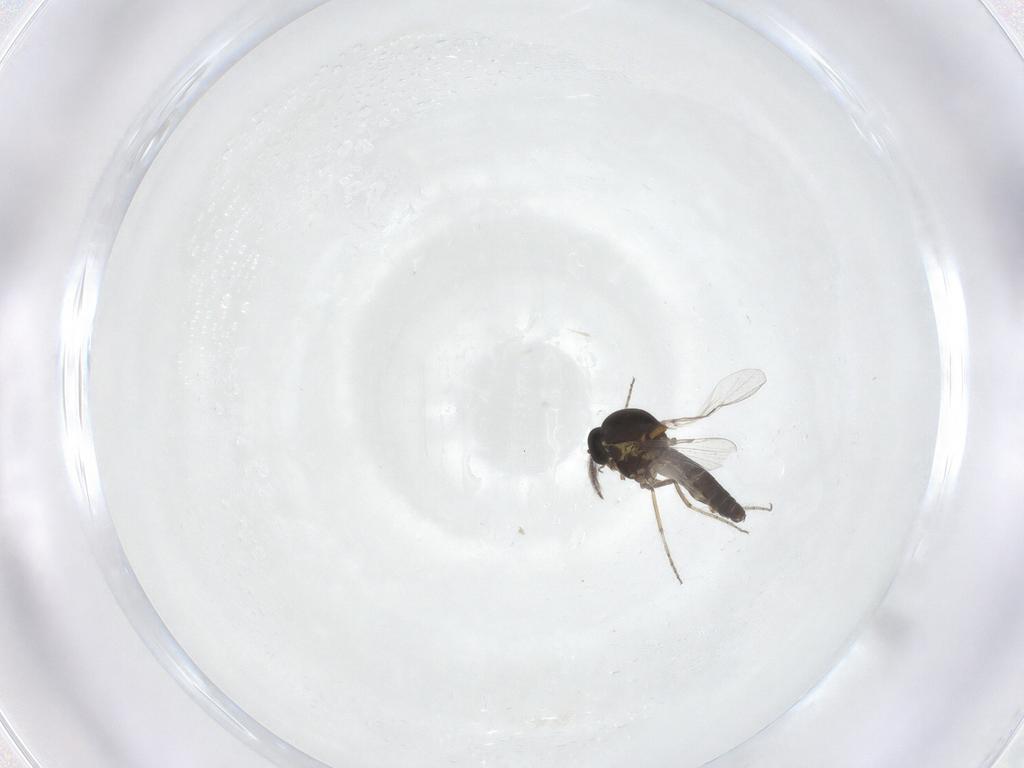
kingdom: Animalia
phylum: Arthropoda
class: Insecta
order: Diptera
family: Ceratopogonidae
